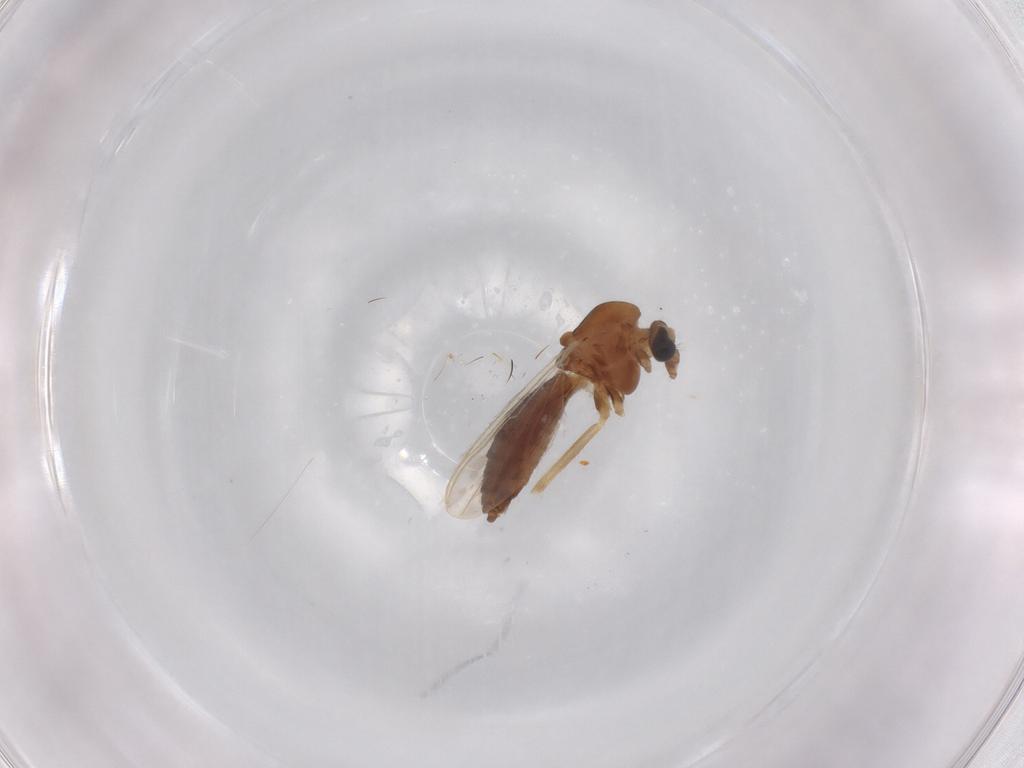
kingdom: Animalia
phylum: Arthropoda
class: Insecta
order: Diptera
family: Chironomidae
